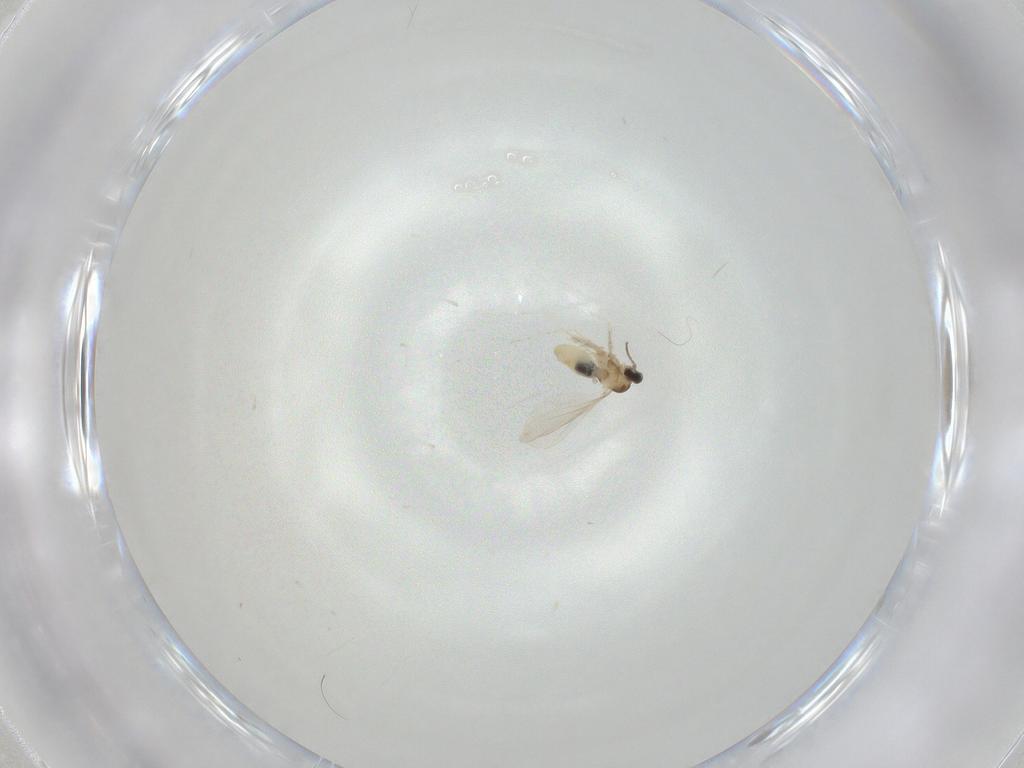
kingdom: Animalia
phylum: Arthropoda
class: Insecta
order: Diptera
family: Cecidomyiidae
